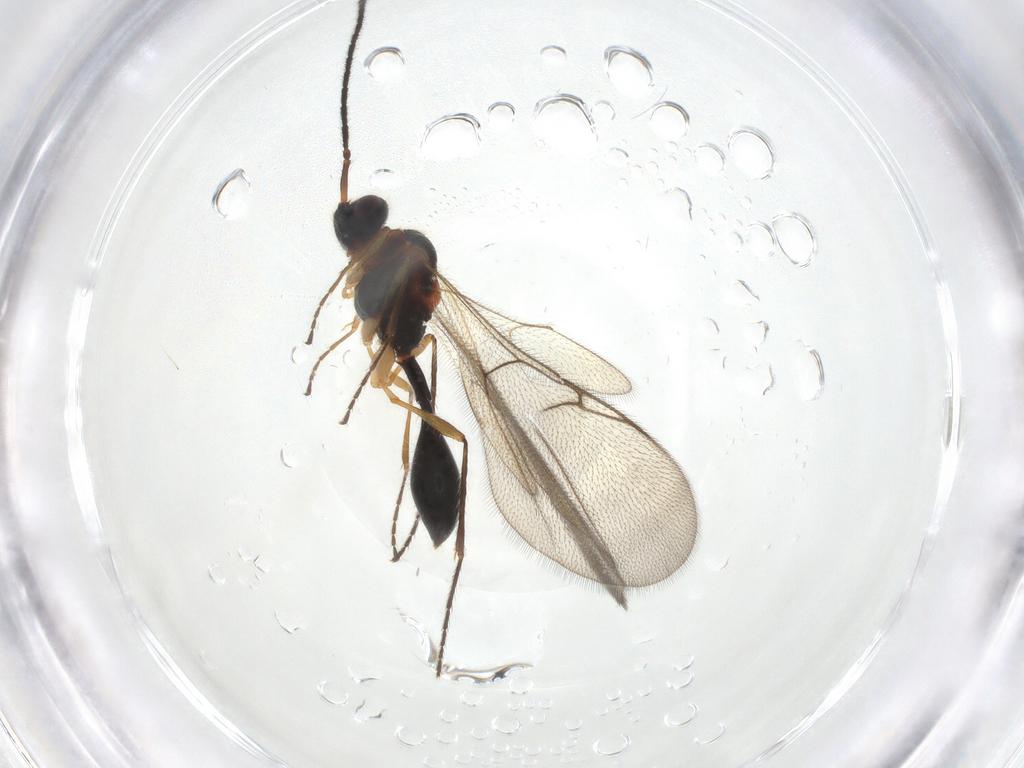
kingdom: Animalia
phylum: Arthropoda
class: Insecta
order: Hymenoptera
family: Diapriidae
